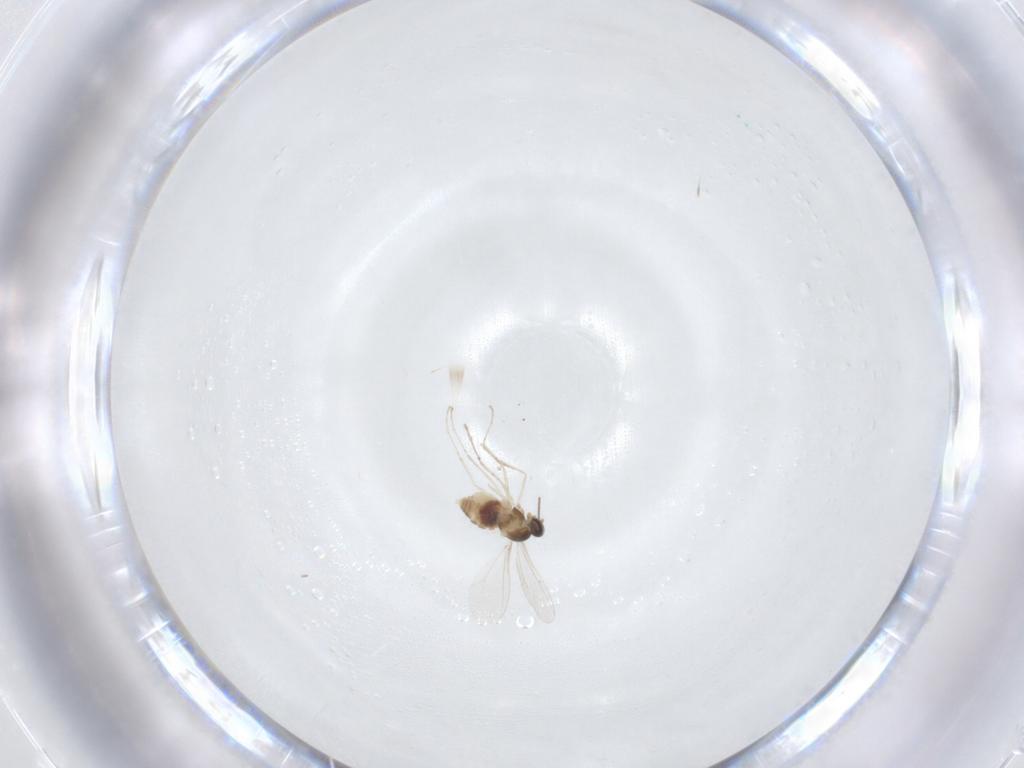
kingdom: Animalia
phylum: Arthropoda
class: Insecta
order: Diptera
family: Cecidomyiidae
